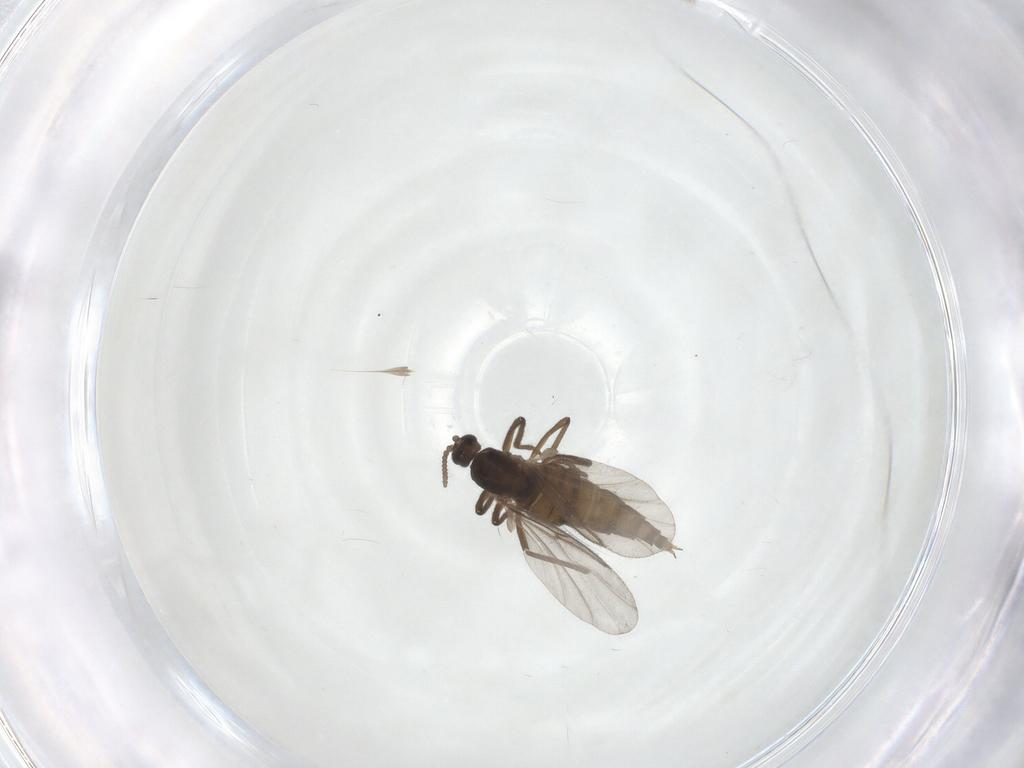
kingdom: Animalia
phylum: Arthropoda
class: Insecta
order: Diptera
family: Cecidomyiidae
